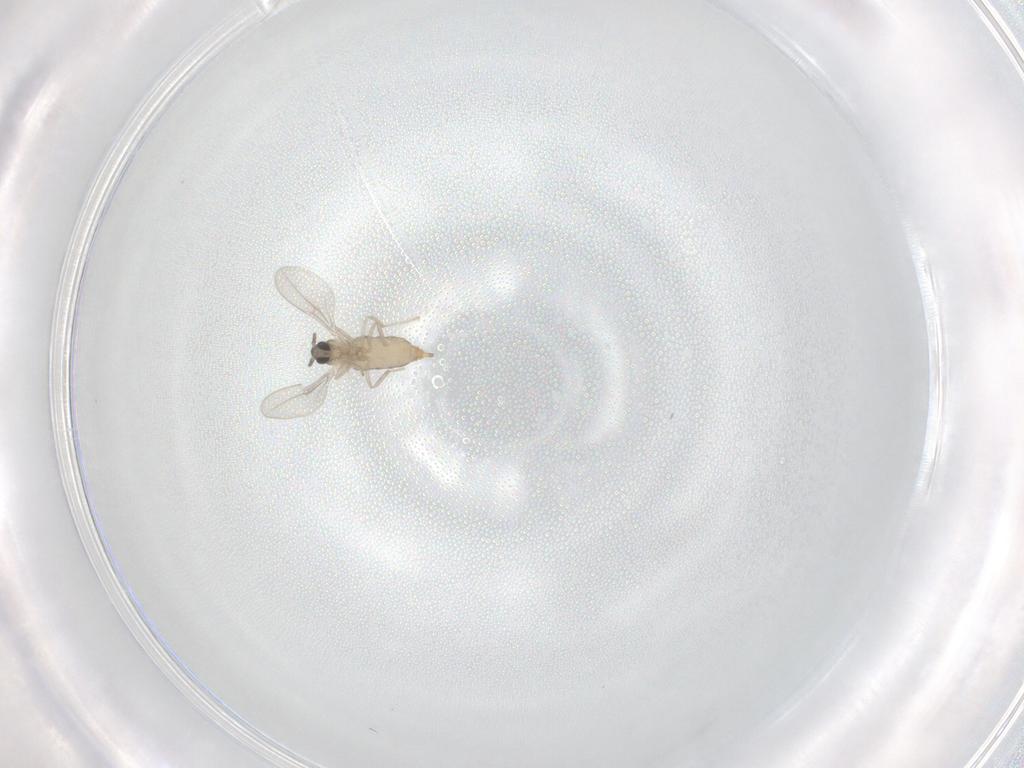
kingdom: Animalia
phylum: Arthropoda
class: Insecta
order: Diptera
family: Cecidomyiidae
